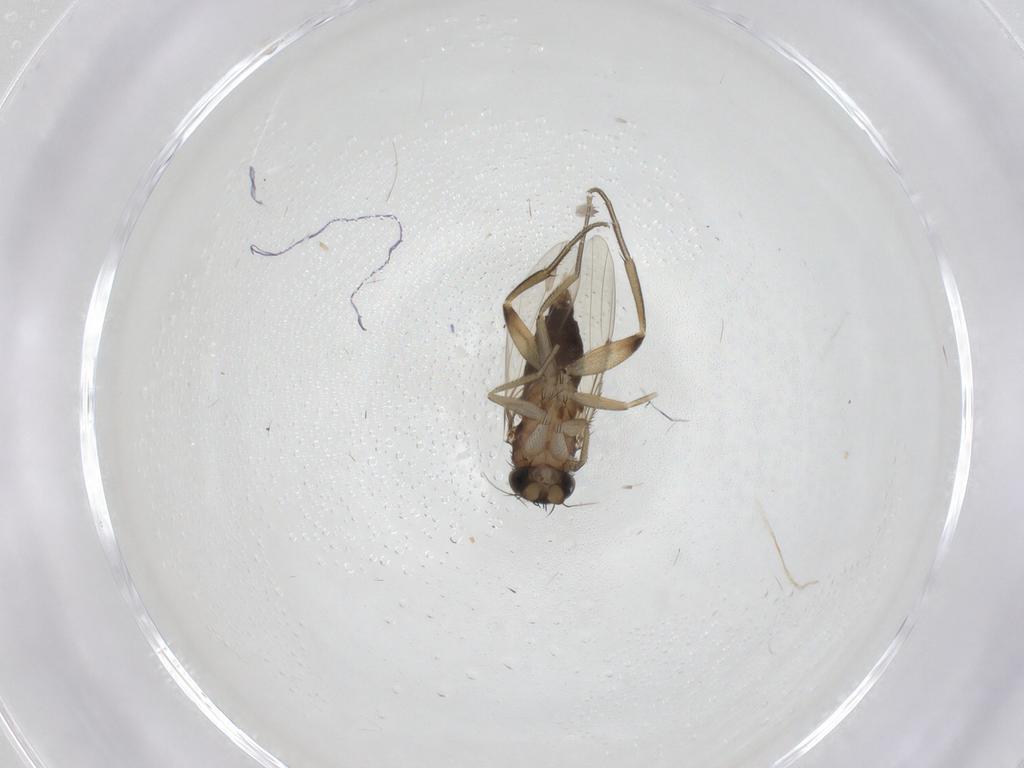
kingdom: Animalia
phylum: Arthropoda
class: Insecta
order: Diptera
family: Phoridae
